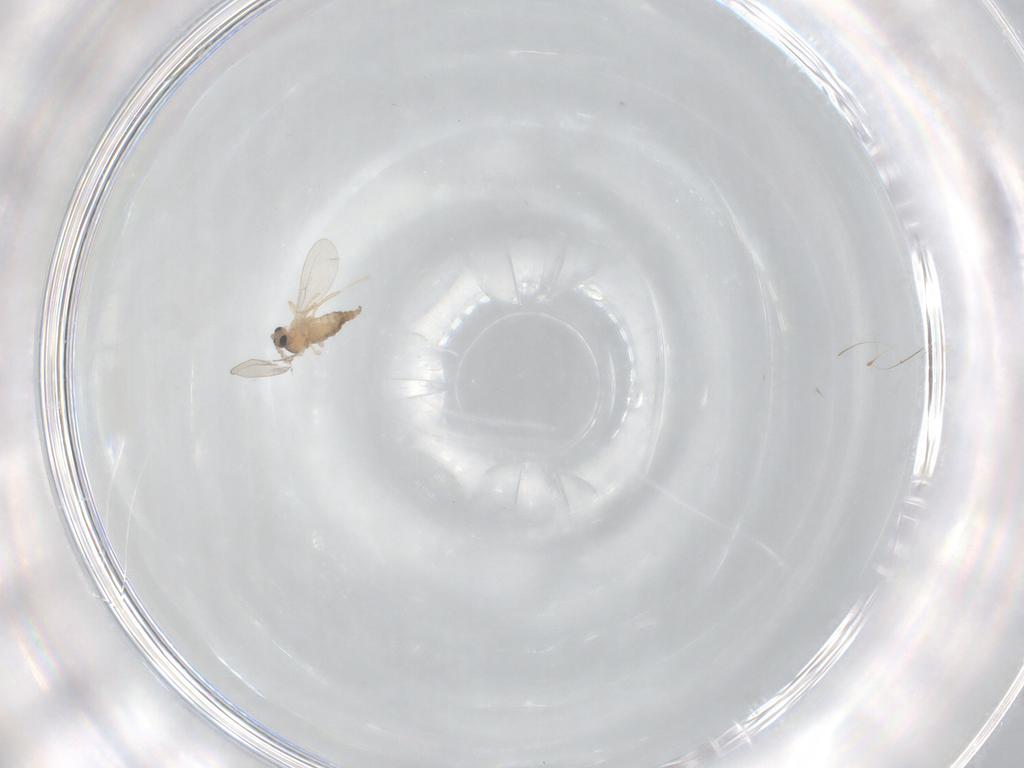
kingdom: Animalia
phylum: Arthropoda
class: Insecta
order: Diptera
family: Cecidomyiidae
